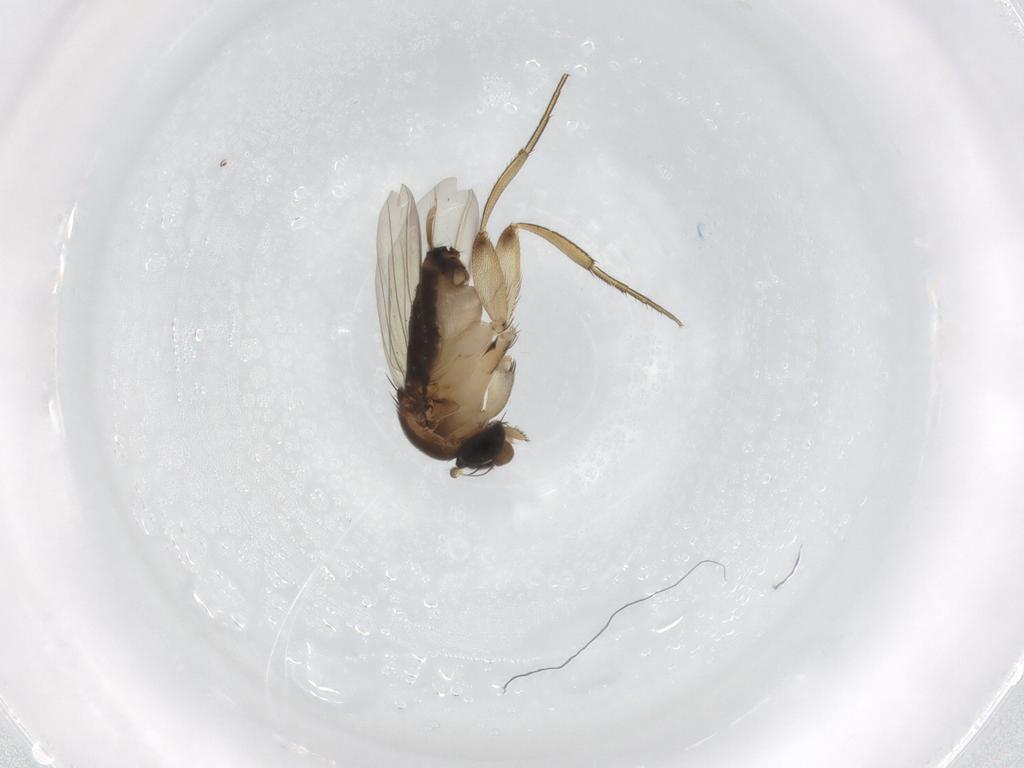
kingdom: Animalia
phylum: Arthropoda
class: Insecta
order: Diptera
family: Phoridae
